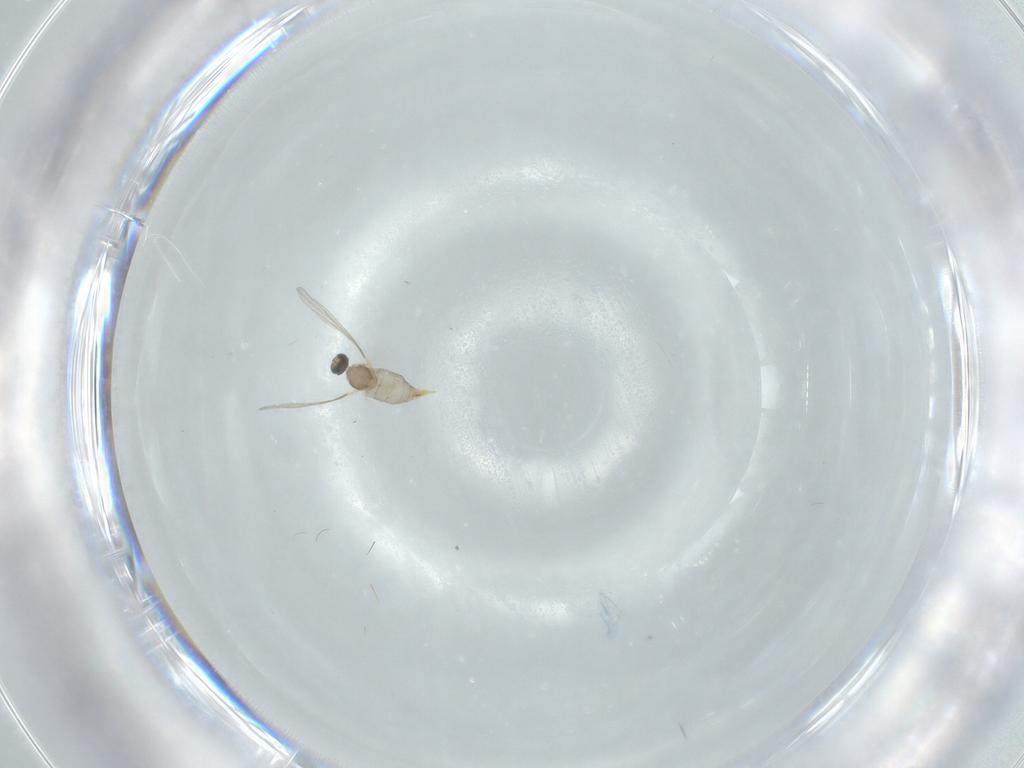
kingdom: Animalia
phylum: Arthropoda
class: Insecta
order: Diptera
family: Cecidomyiidae
